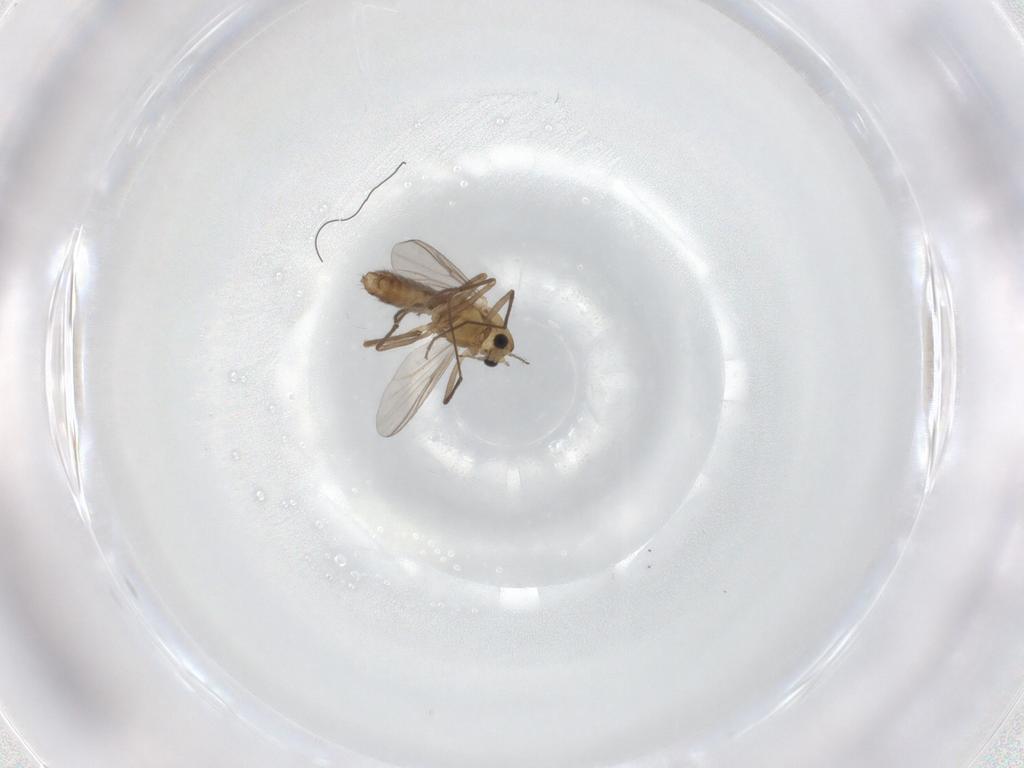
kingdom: Animalia
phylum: Arthropoda
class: Insecta
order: Diptera
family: Chironomidae
